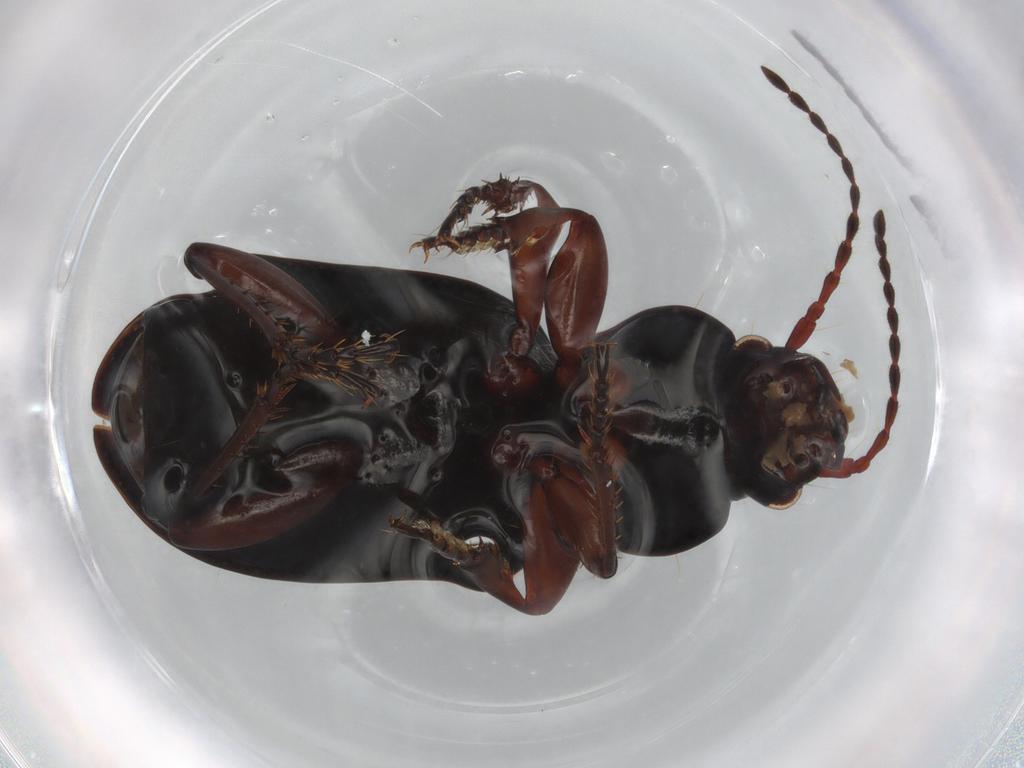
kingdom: Animalia
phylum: Arthropoda
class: Insecta
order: Coleoptera
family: Carabidae
